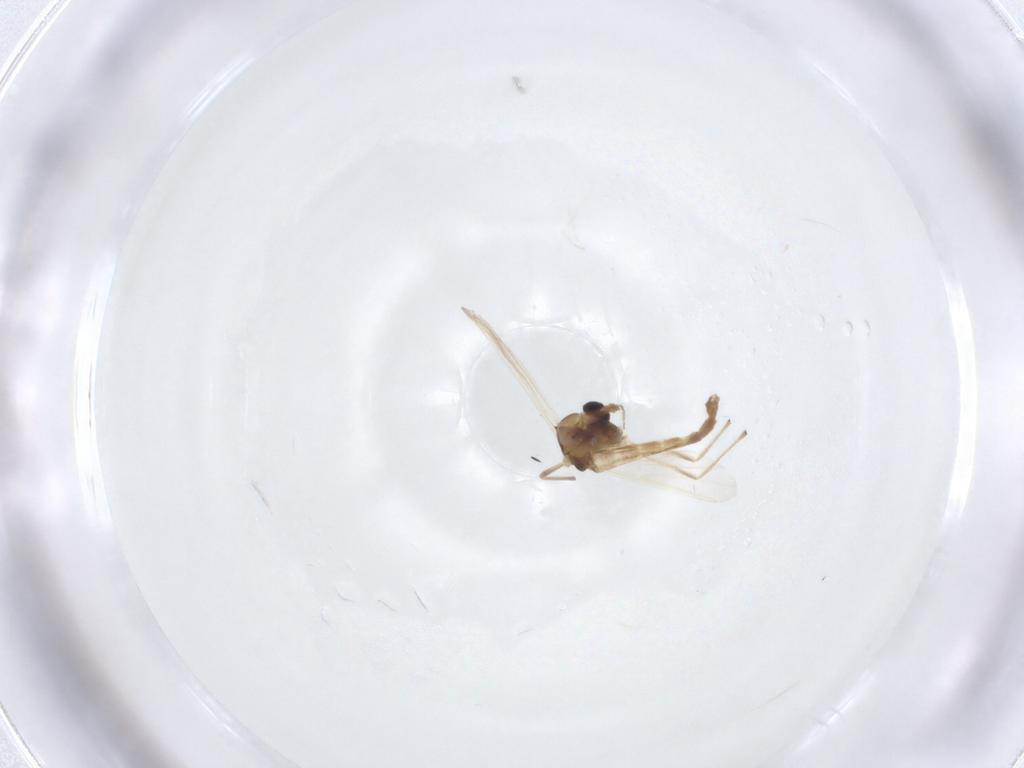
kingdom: Animalia
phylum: Arthropoda
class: Insecta
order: Diptera
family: Chironomidae
